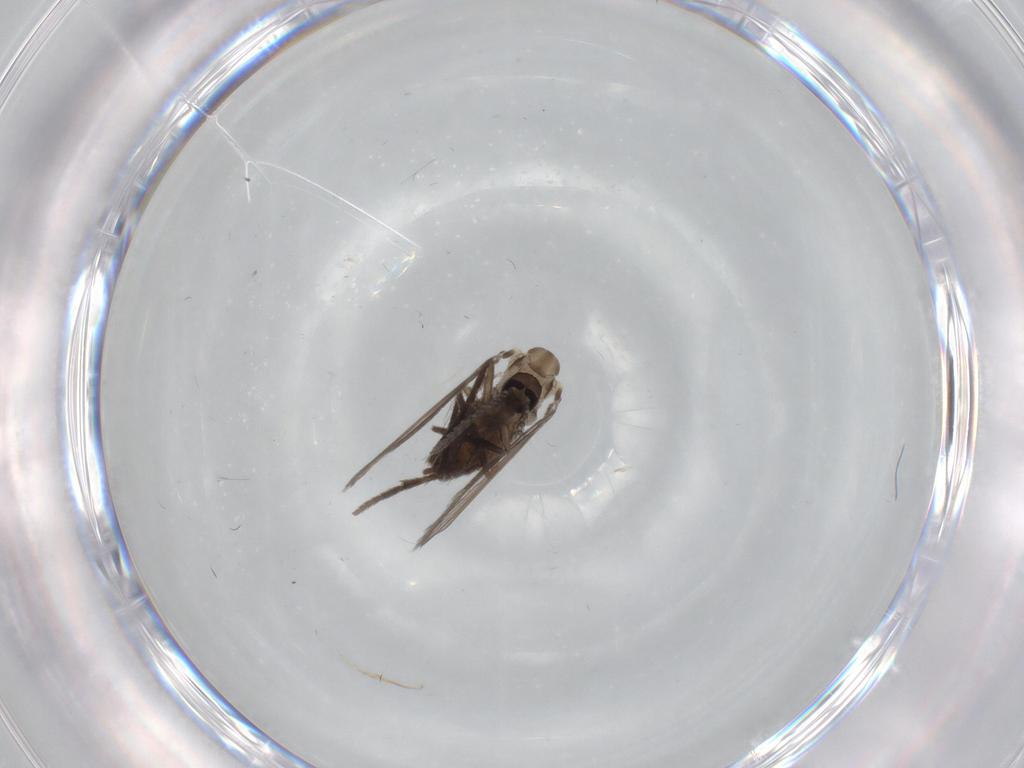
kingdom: Animalia
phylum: Arthropoda
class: Insecta
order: Diptera
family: Psychodidae
